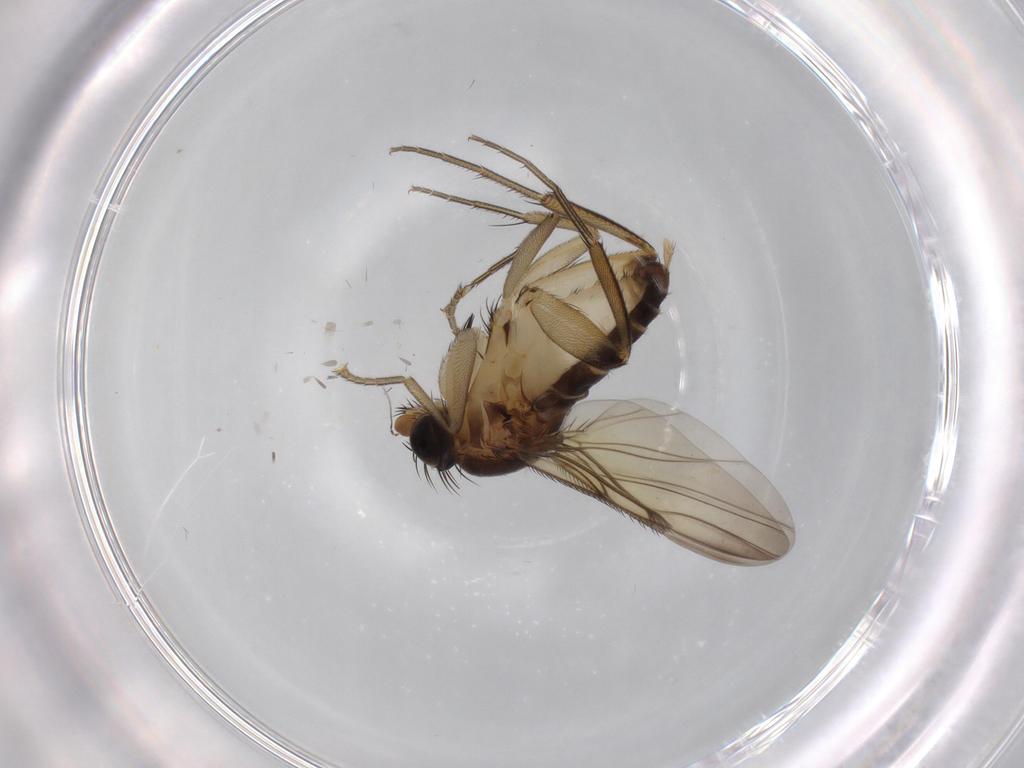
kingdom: Animalia
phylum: Arthropoda
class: Insecta
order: Diptera
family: Phoridae
